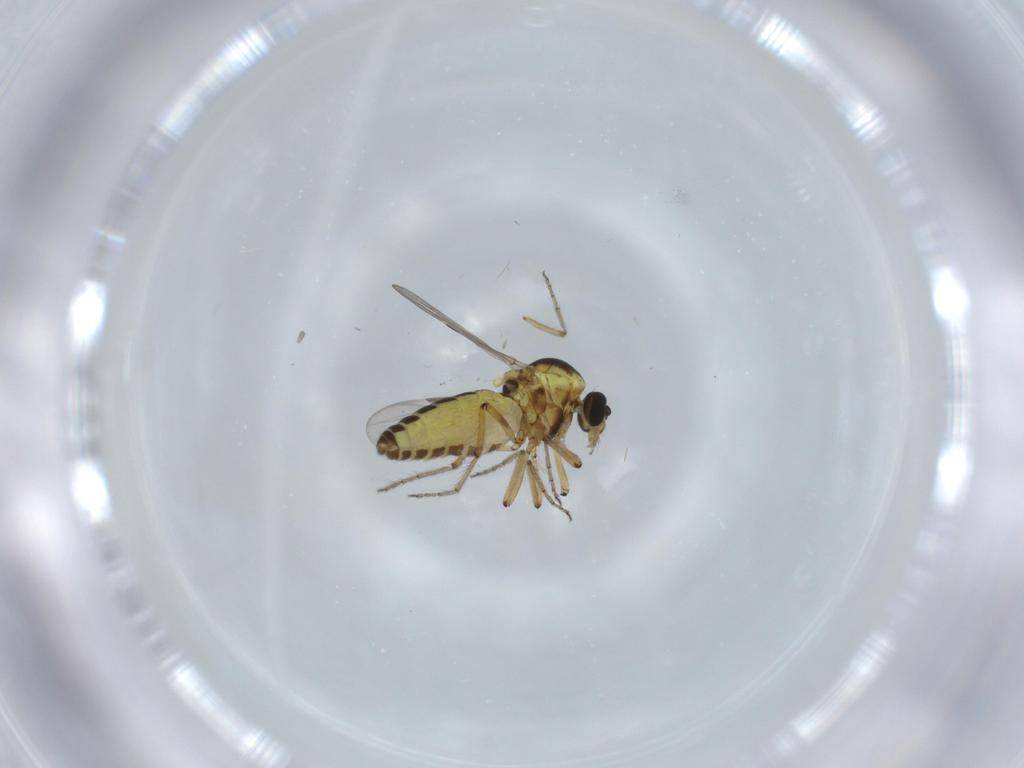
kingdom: Animalia
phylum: Arthropoda
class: Insecta
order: Diptera
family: Ceratopogonidae
